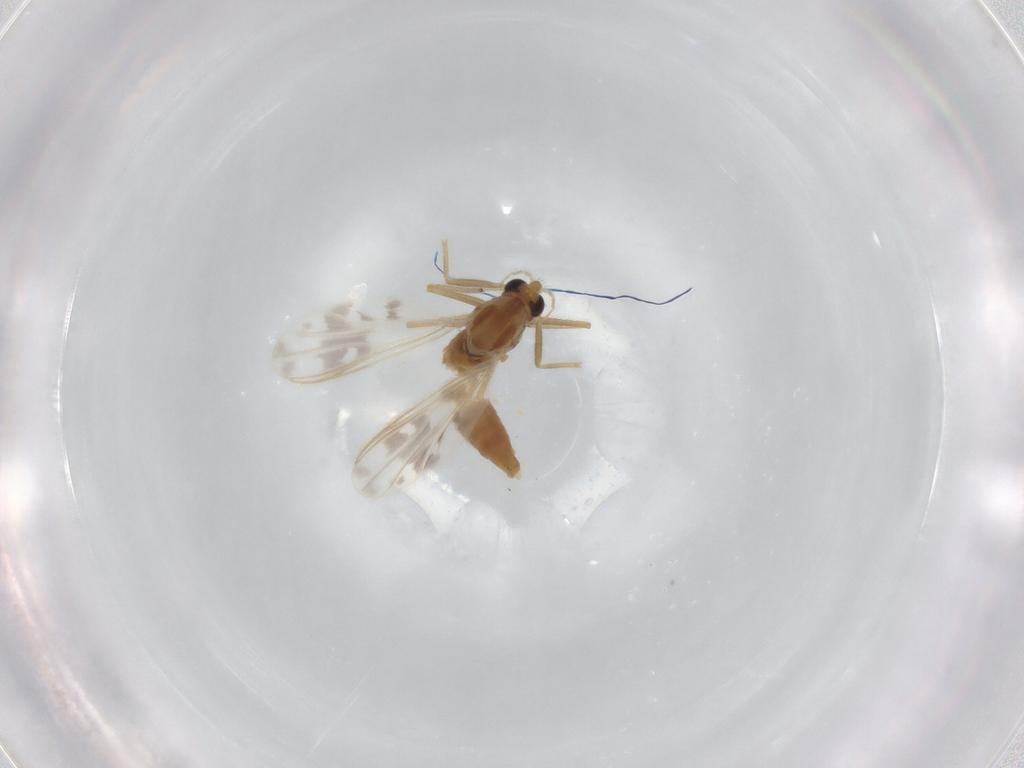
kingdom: Animalia
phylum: Arthropoda
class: Insecta
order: Diptera
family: Chironomidae
